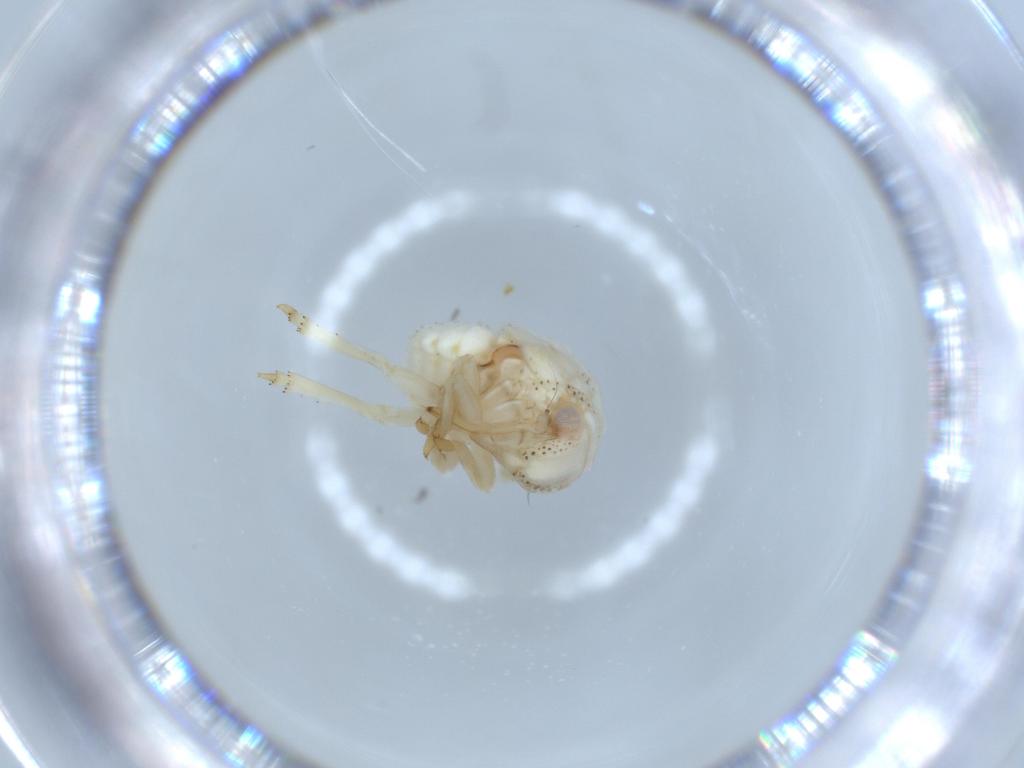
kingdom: Animalia
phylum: Arthropoda
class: Insecta
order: Hemiptera
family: Acanaloniidae
